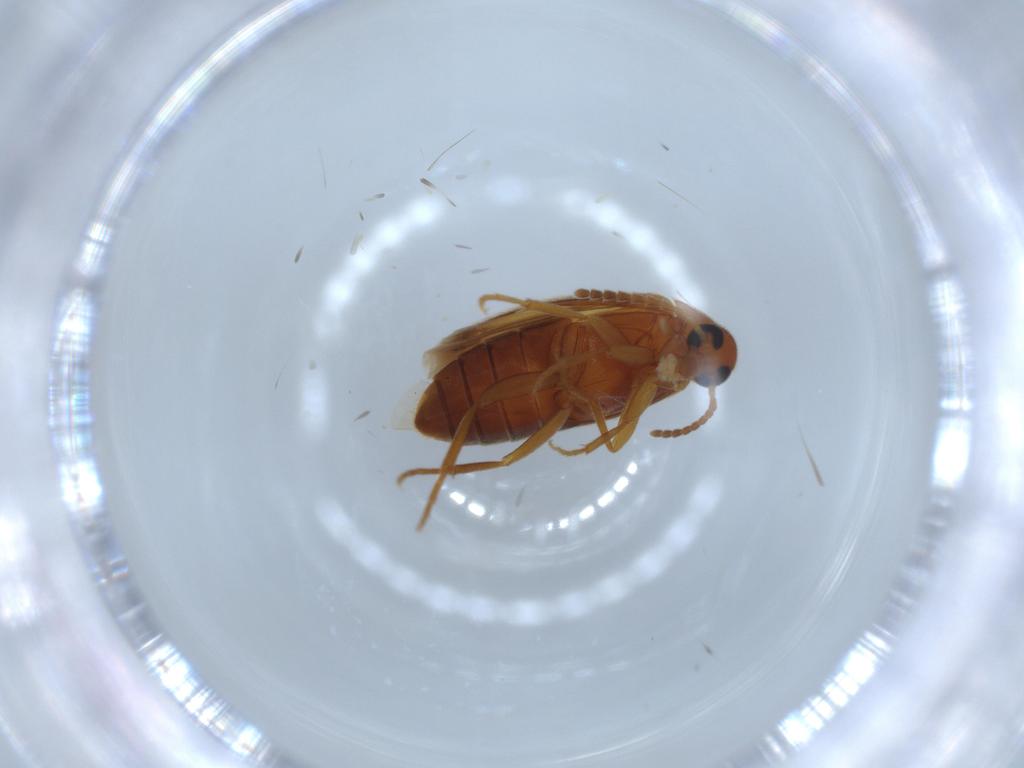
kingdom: Animalia
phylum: Arthropoda
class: Insecta
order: Coleoptera
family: Scraptiidae
